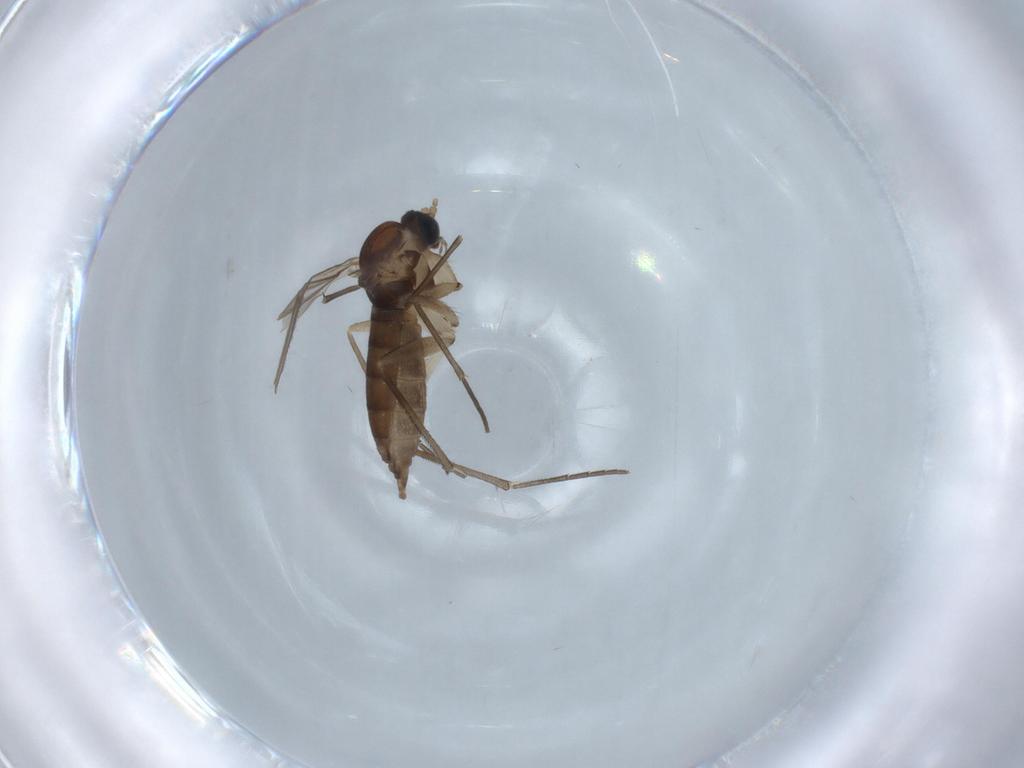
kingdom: Animalia
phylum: Arthropoda
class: Insecta
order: Diptera
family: Sciaridae
